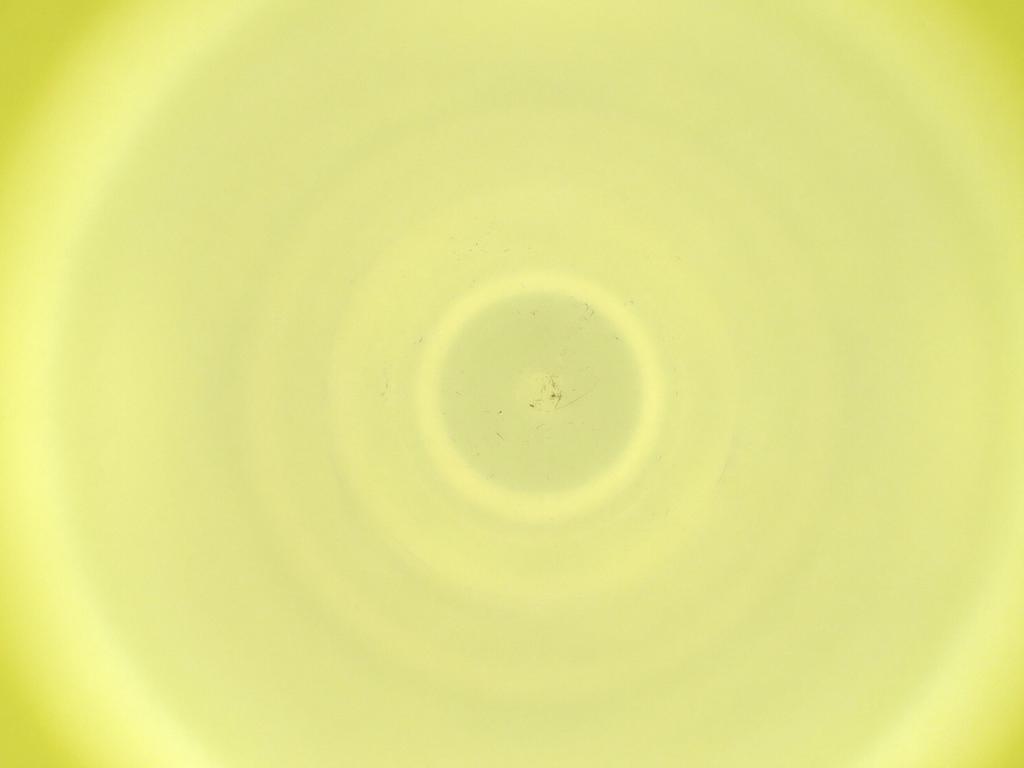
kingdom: Animalia
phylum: Arthropoda
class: Insecta
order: Diptera
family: Cecidomyiidae
